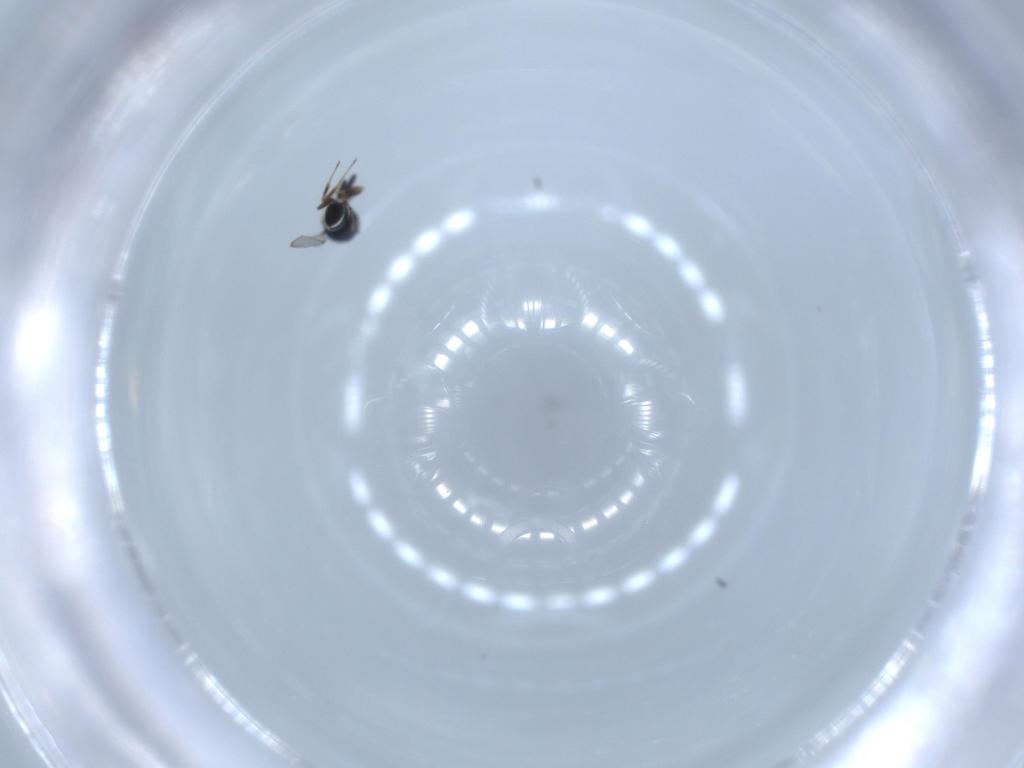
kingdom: Animalia
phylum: Arthropoda
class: Insecta
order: Hymenoptera
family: Scelionidae
